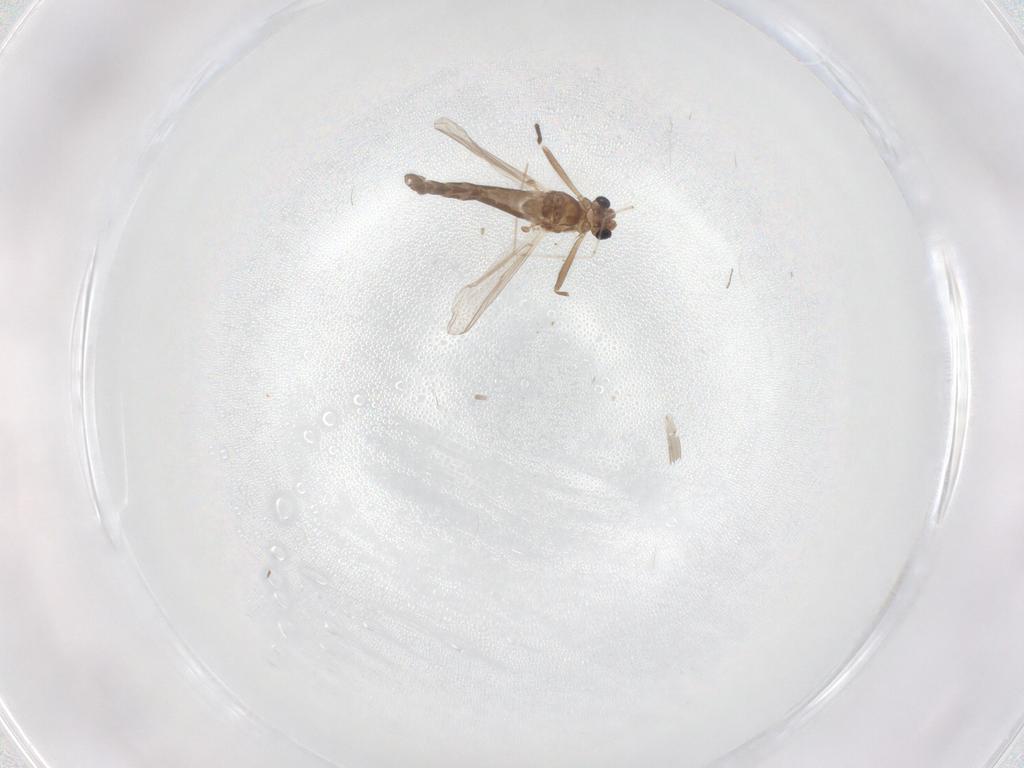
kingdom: Animalia
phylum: Arthropoda
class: Insecta
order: Diptera
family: Chironomidae
